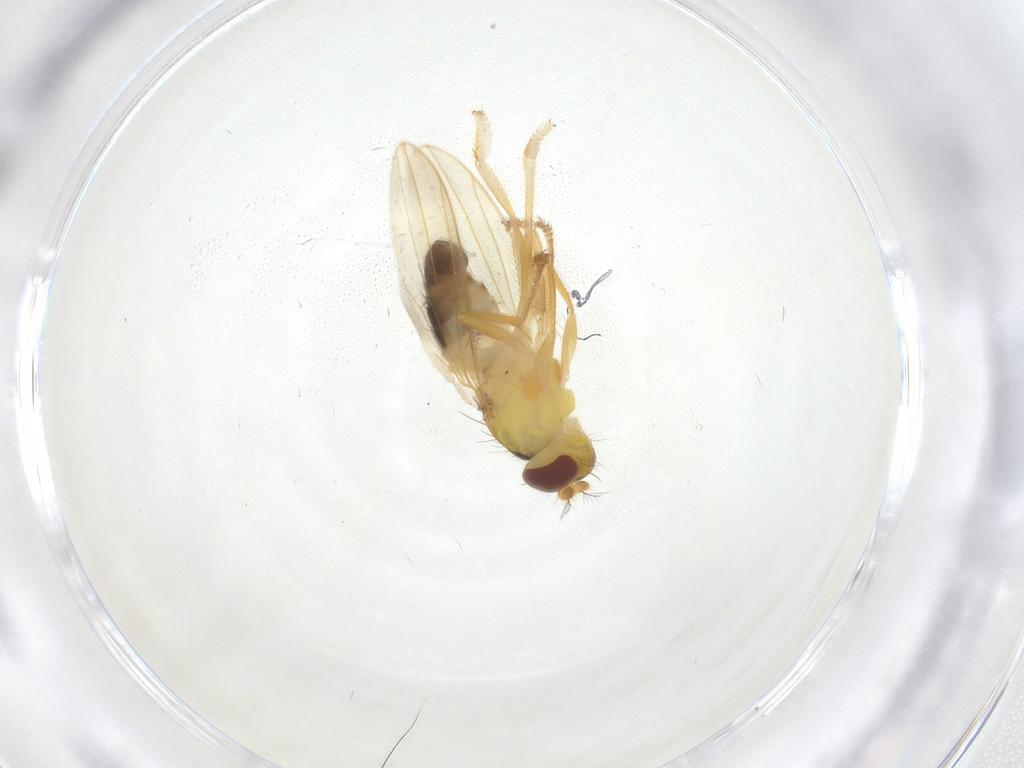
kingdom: Animalia
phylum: Arthropoda
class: Insecta
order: Diptera
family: Periscelididae
